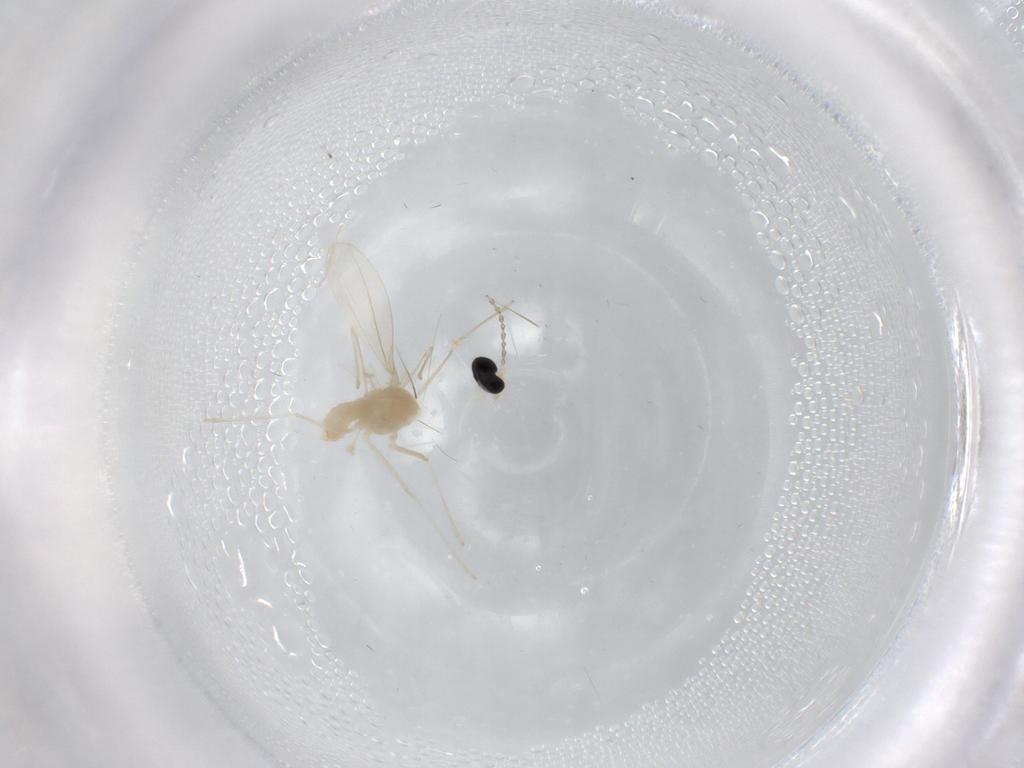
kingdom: Animalia
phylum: Arthropoda
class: Insecta
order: Diptera
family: Cecidomyiidae
